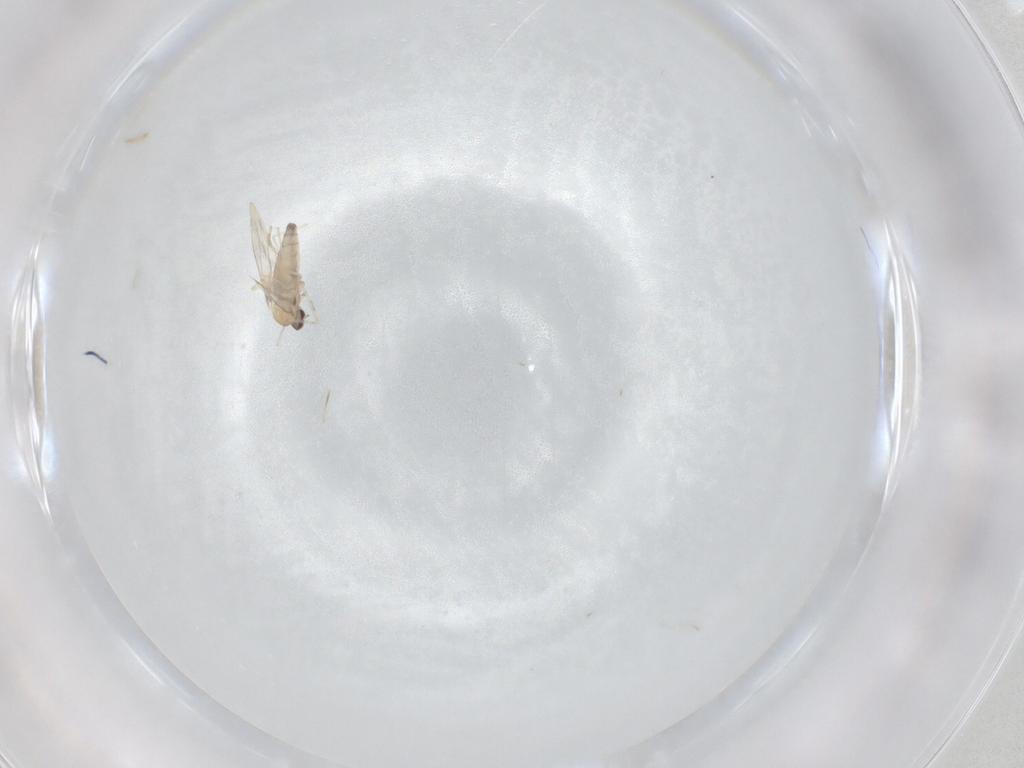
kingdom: Animalia
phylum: Arthropoda
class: Insecta
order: Diptera
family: Cecidomyiidae
